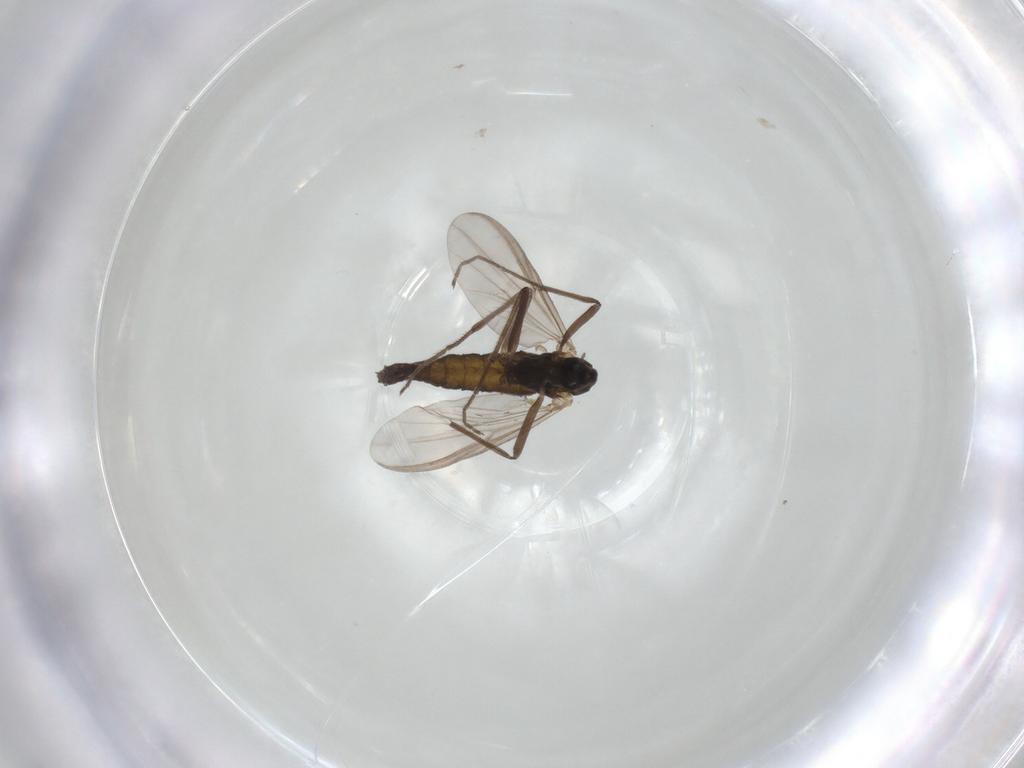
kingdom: Animalia
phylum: Arthropoda
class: Insecta
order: Diptera
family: Chironomidae
